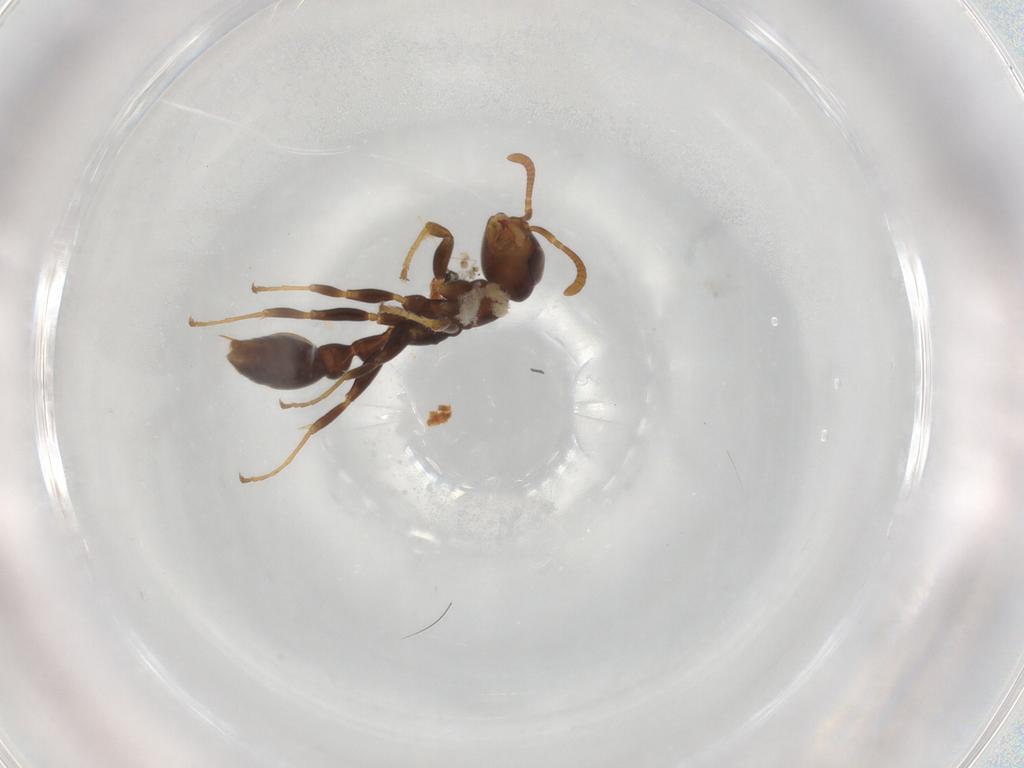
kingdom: Animalia
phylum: Arthropoda
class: Insecta
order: Hymenoptera
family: Formicidae
